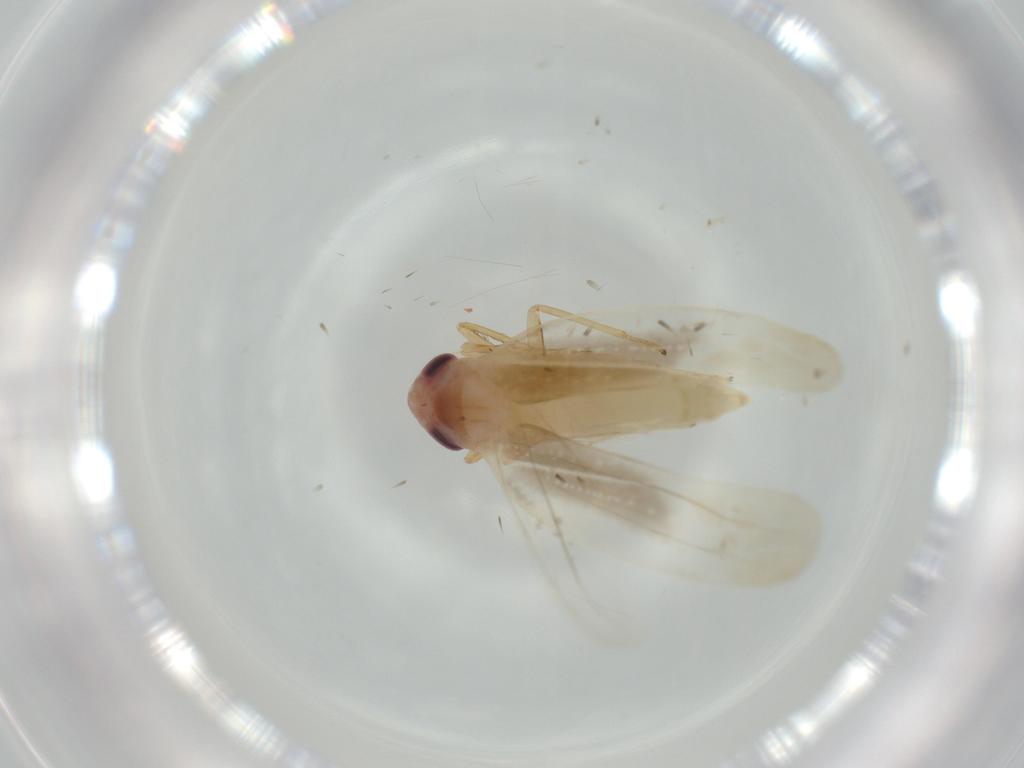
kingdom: Animalia
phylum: Arthropoda
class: Insecta
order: Hemiptera
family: Cicadellidae
